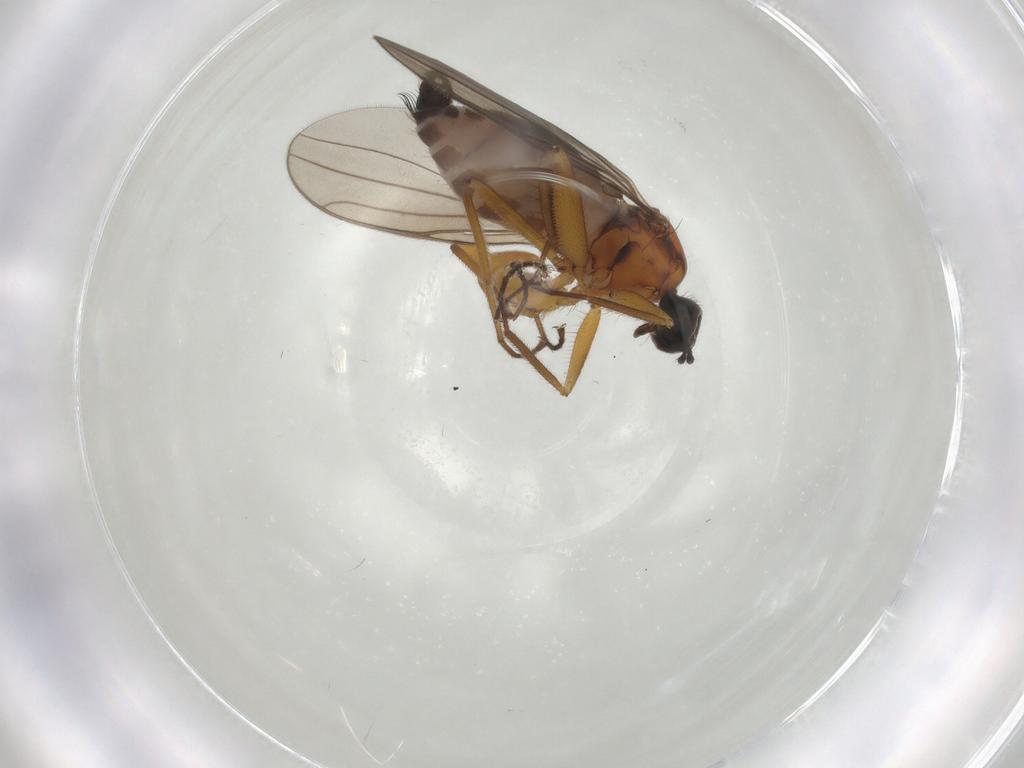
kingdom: Animalia
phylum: Arthropoda
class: Insecta
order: Diptera
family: Hybotidae
